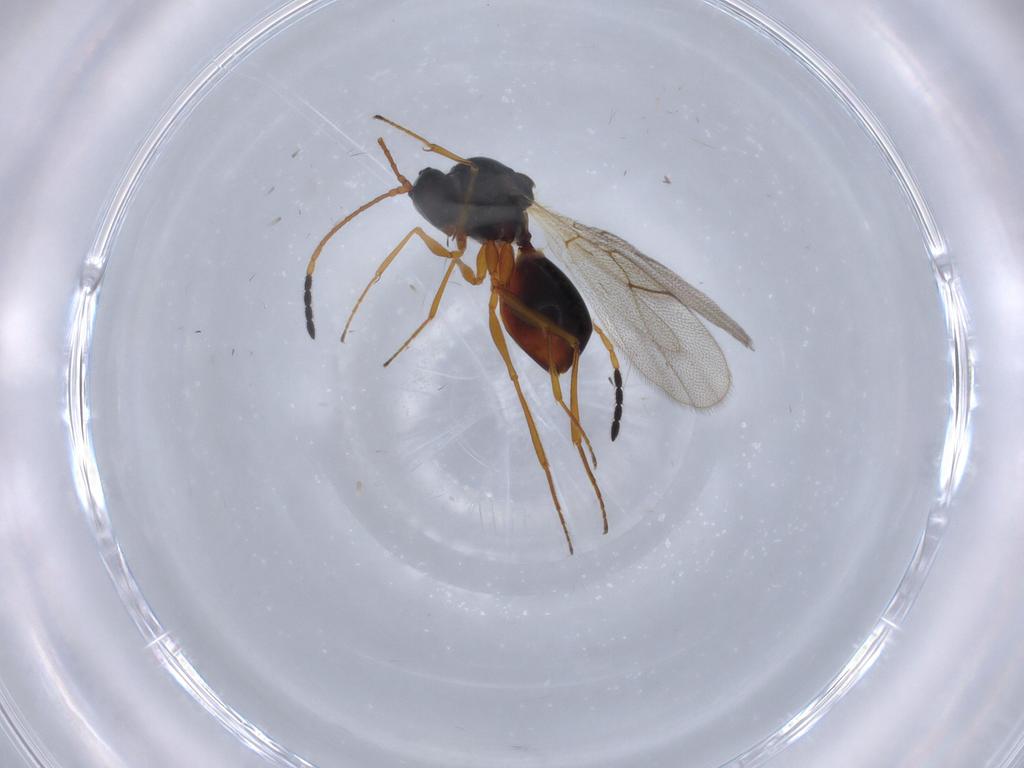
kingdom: Animalia
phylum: Arthropoda
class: Insecta
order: Hymenoptera
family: Figitidae
